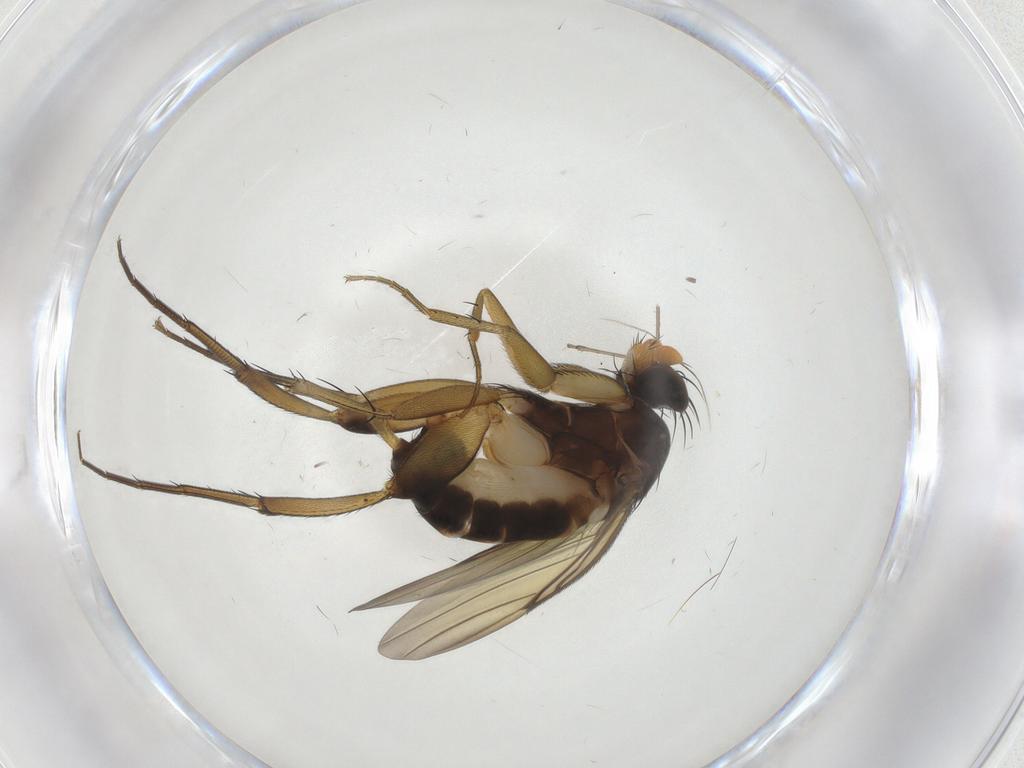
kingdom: Animalia
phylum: Arthropoda
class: Insecta
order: Diptera
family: Phoridae
